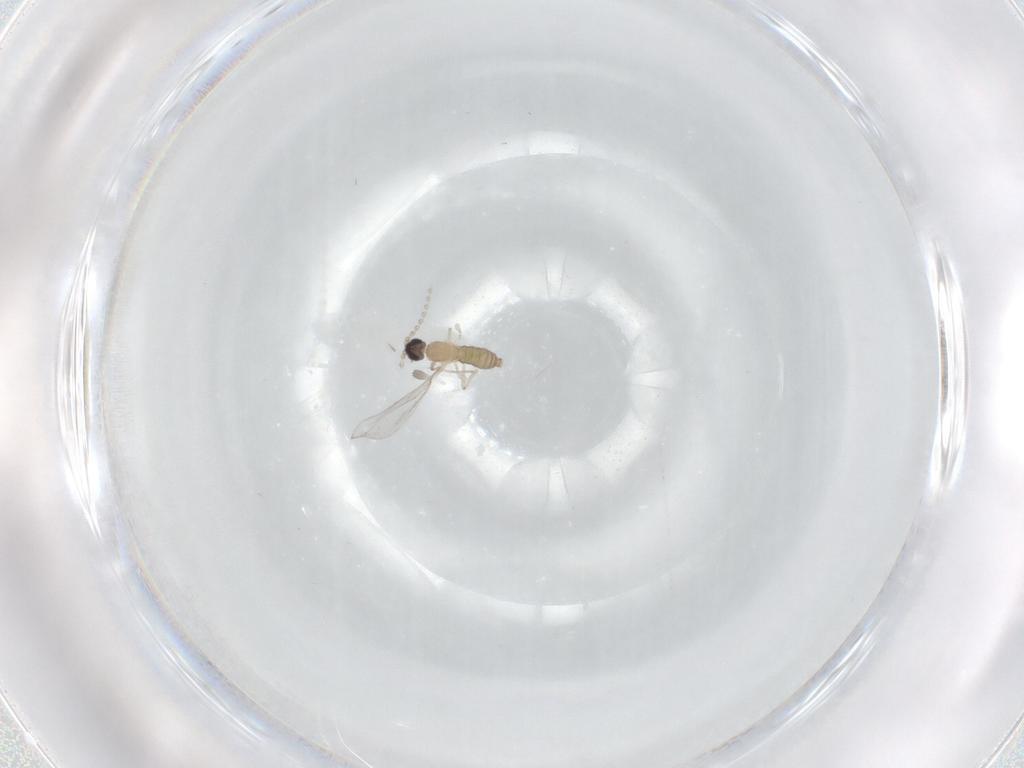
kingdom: Animalia
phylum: Arthropoda
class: Insecta
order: Diptera
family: Cecidomyiidae
